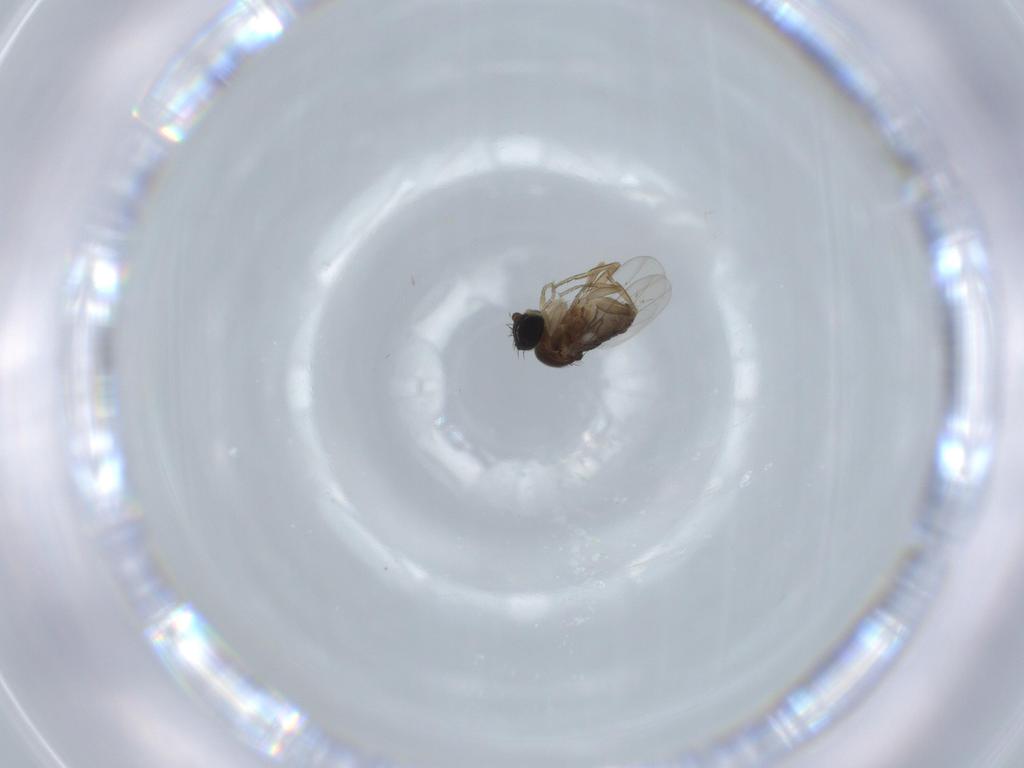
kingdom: Animalia
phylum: Arthropoda
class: Insecta
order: Diptera
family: Phoridae
